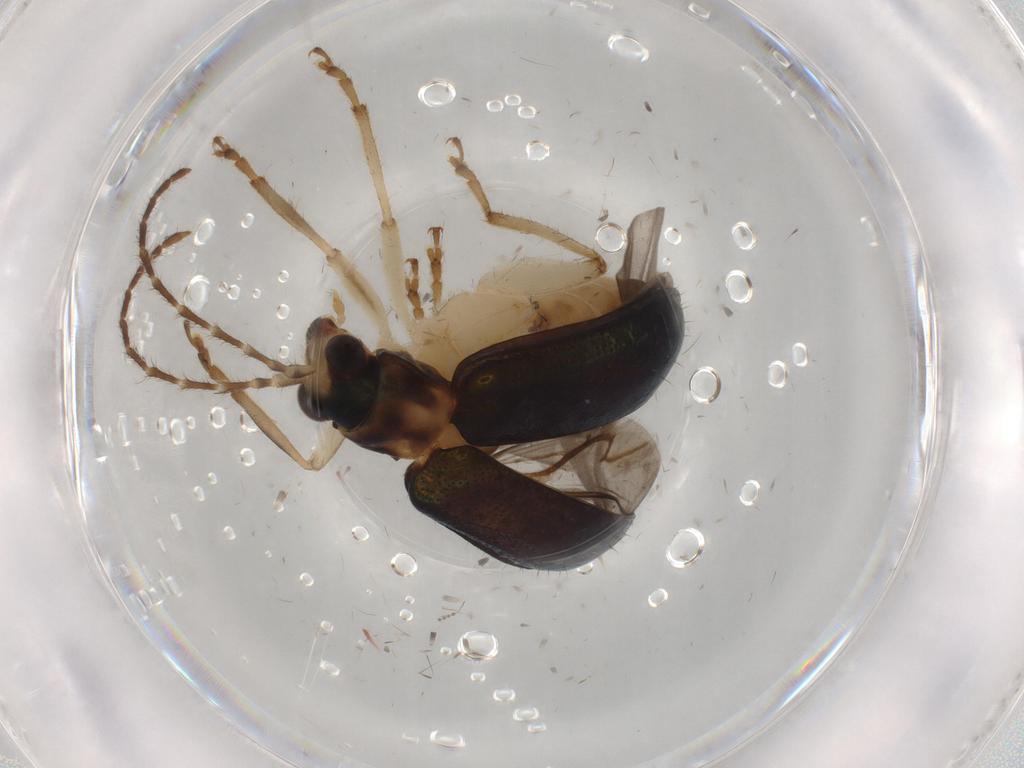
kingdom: Animalia
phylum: Arthropoda
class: Insecta
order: Coleoptera
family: Chrysomelidae
